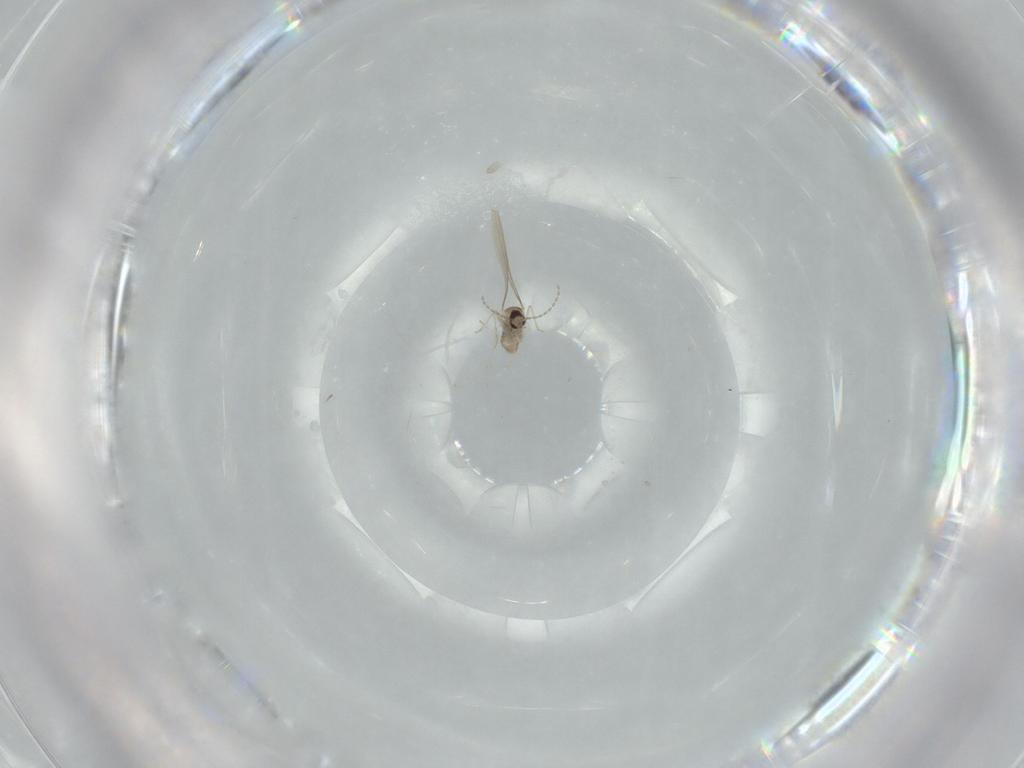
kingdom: Animalia
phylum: Arthropoda
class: Insecta
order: Diptera
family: Cecidomyiidae
